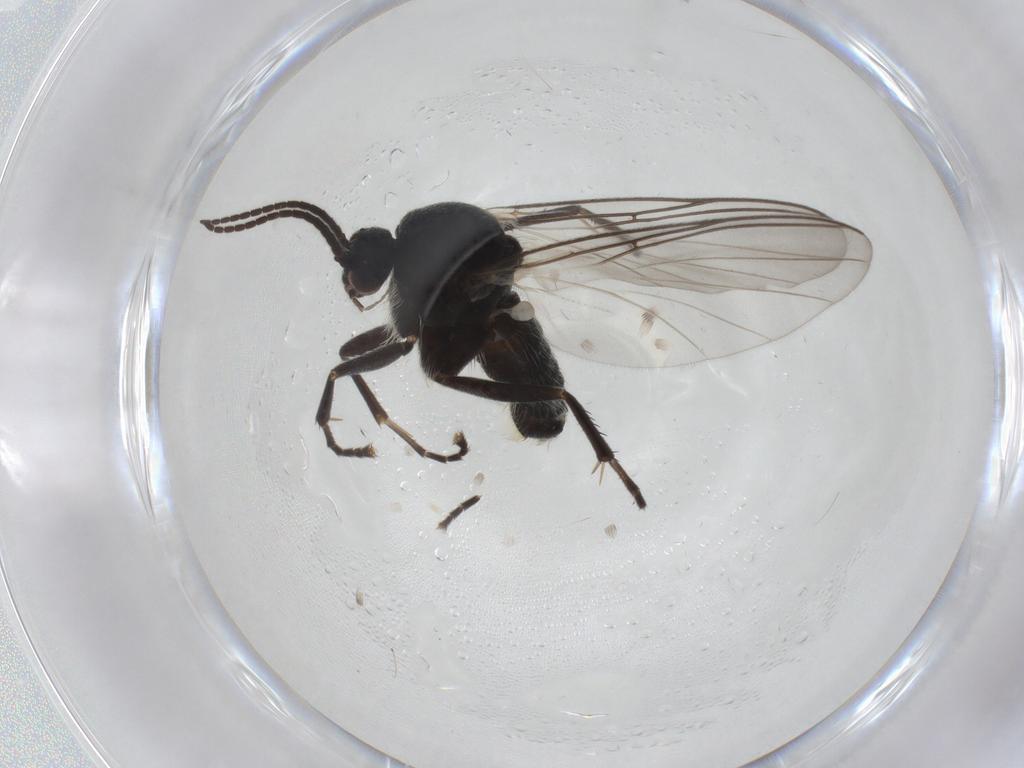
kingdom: Animalia
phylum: Arthropoda
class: Insecta
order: Diptera
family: Mycetophilidae
